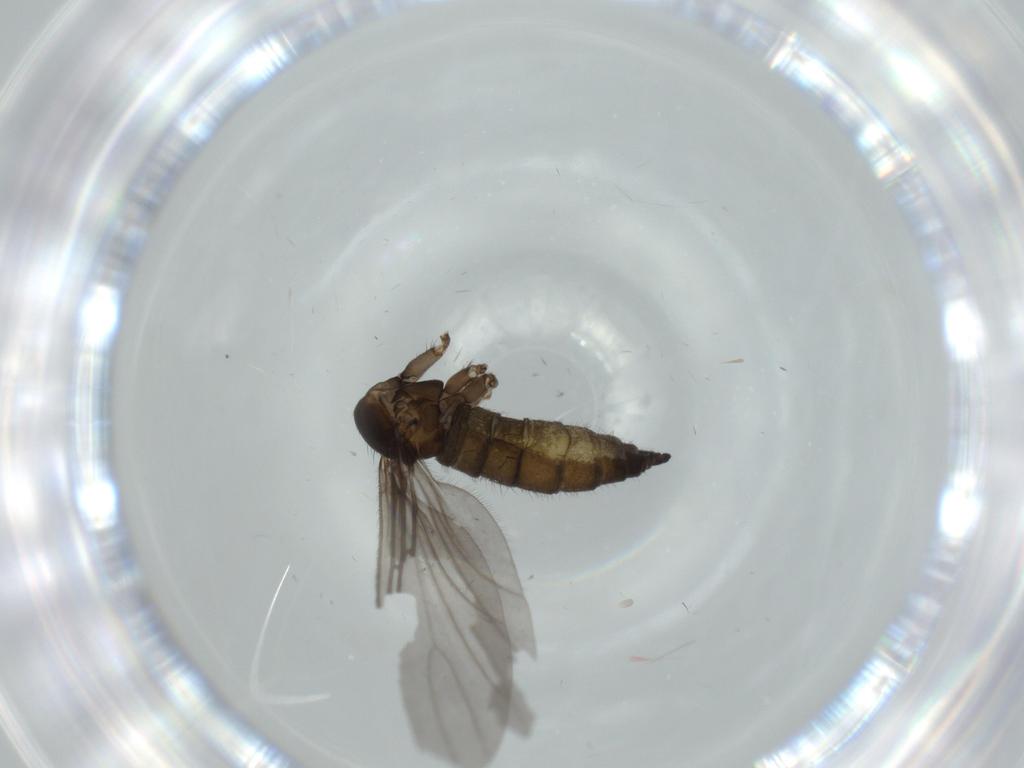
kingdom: Animalia
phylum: Arthropoda
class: Insecta
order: Diptera
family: Sciaridae
